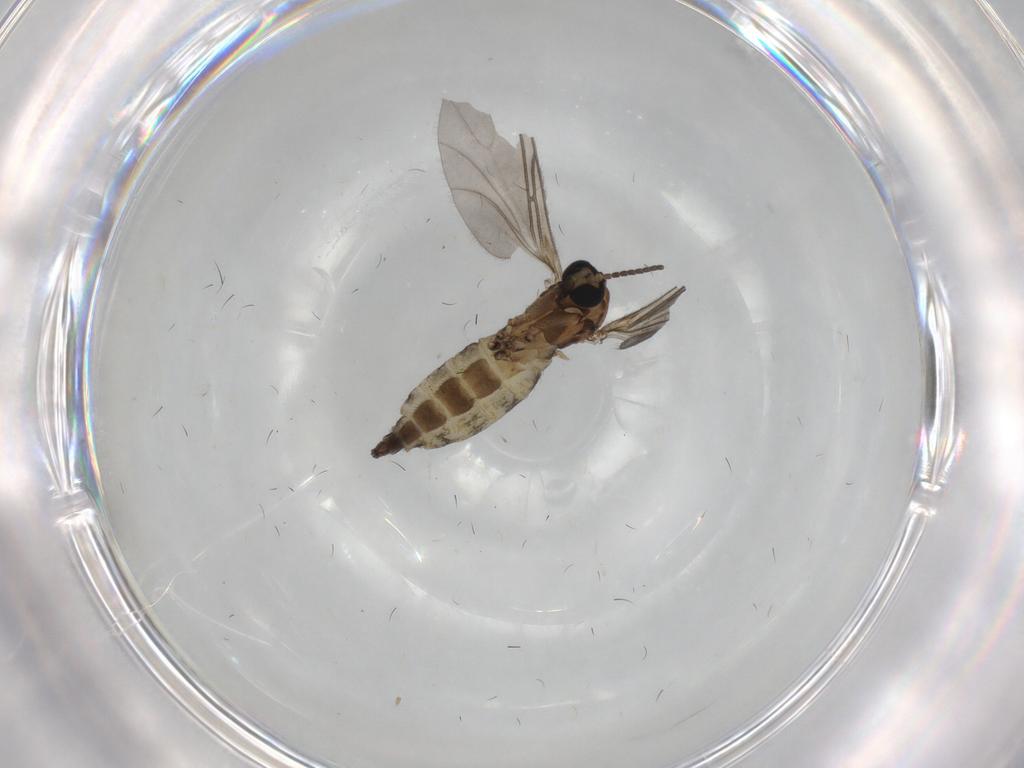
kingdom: Animalia
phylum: Arthropoda
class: Insecta
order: Diptera
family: Sciaridae
